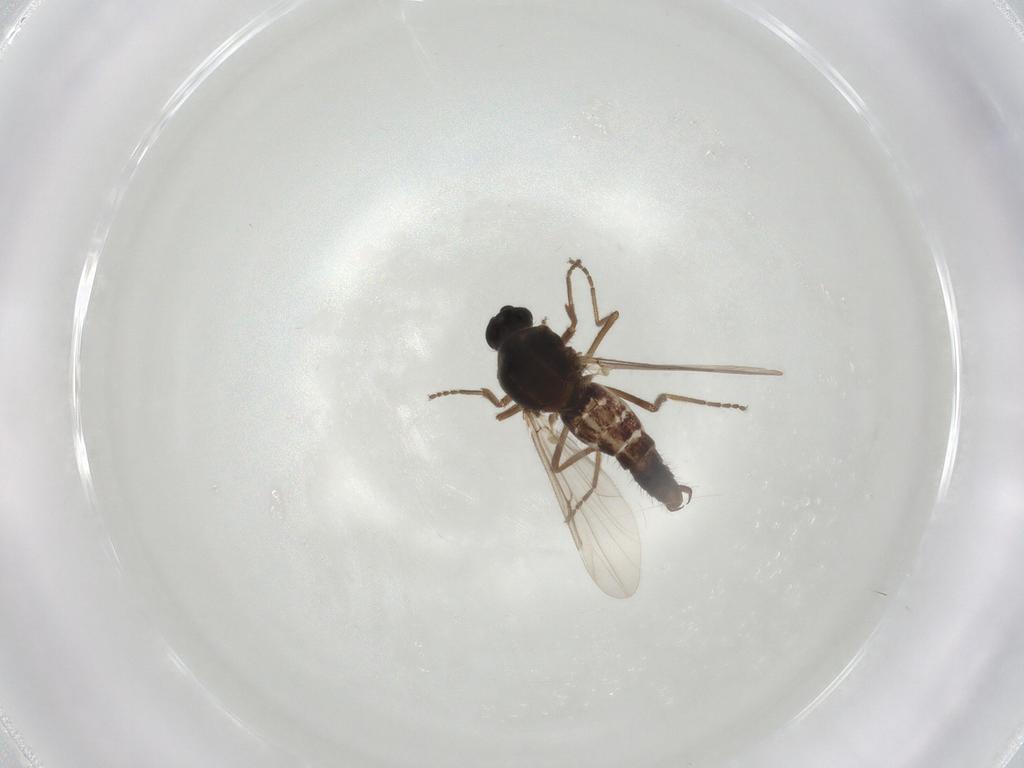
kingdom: Animalia
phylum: Arthropoda
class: Insecta
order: Diptera
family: Ceratopogonidae
